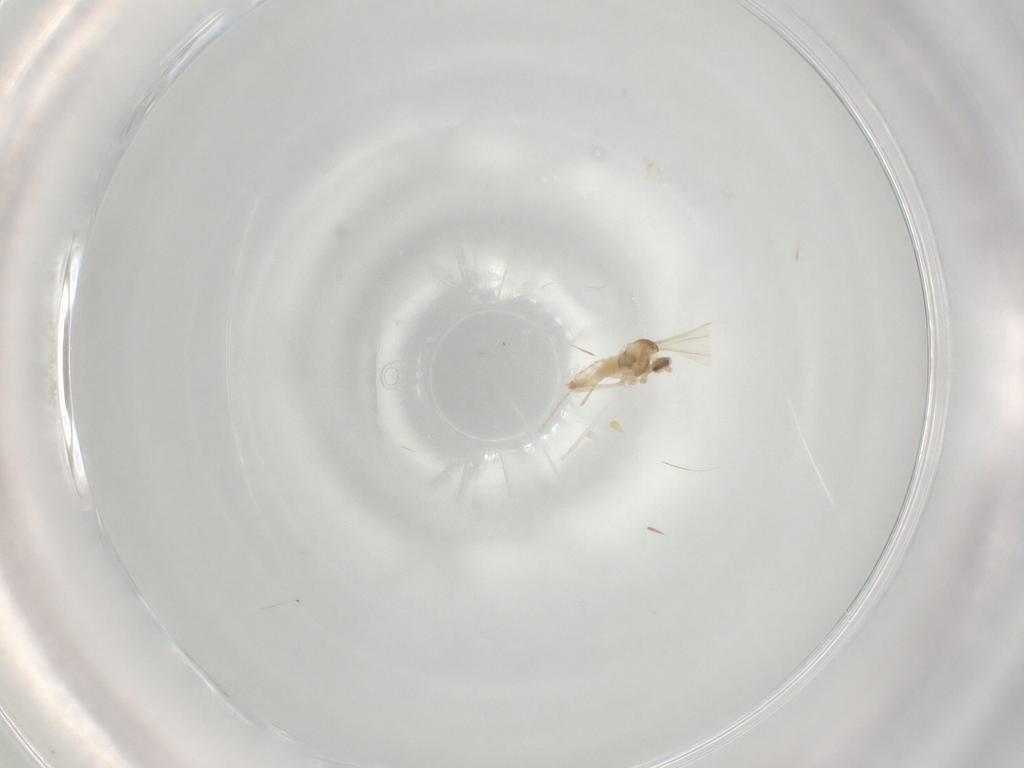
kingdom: Animalia
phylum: Arthropoda
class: Insecta
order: Diptera
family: Chironomidae
